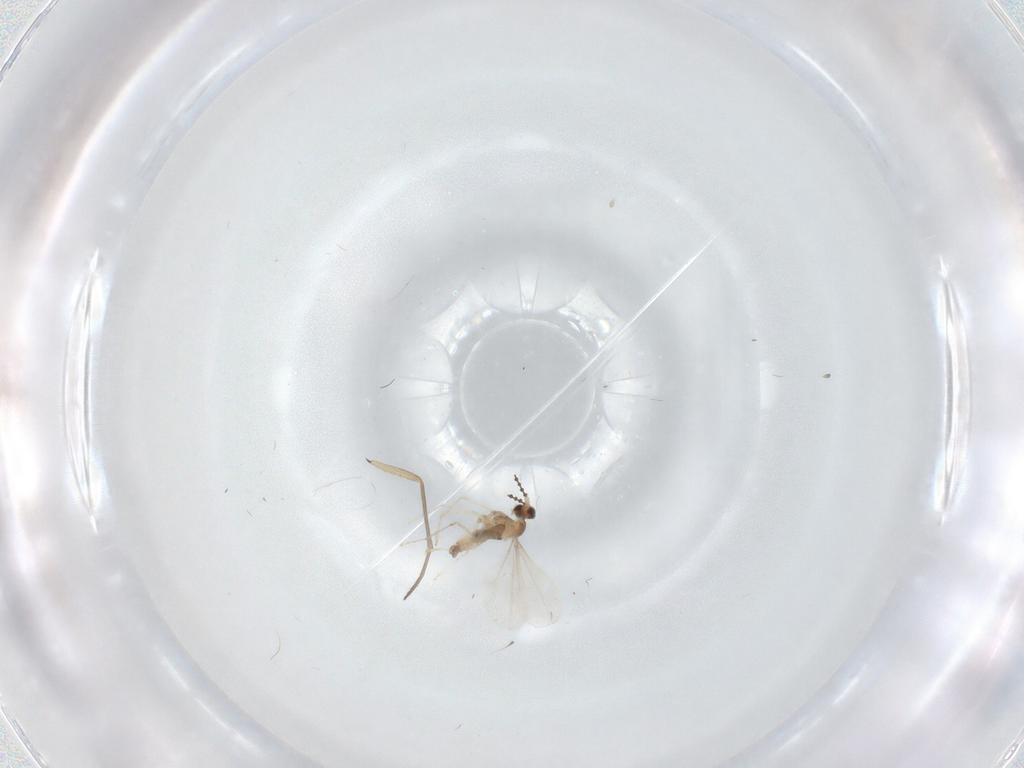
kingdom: Animalia
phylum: Arthropoda
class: Insecta
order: Diptera
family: Cecidomyiidae
